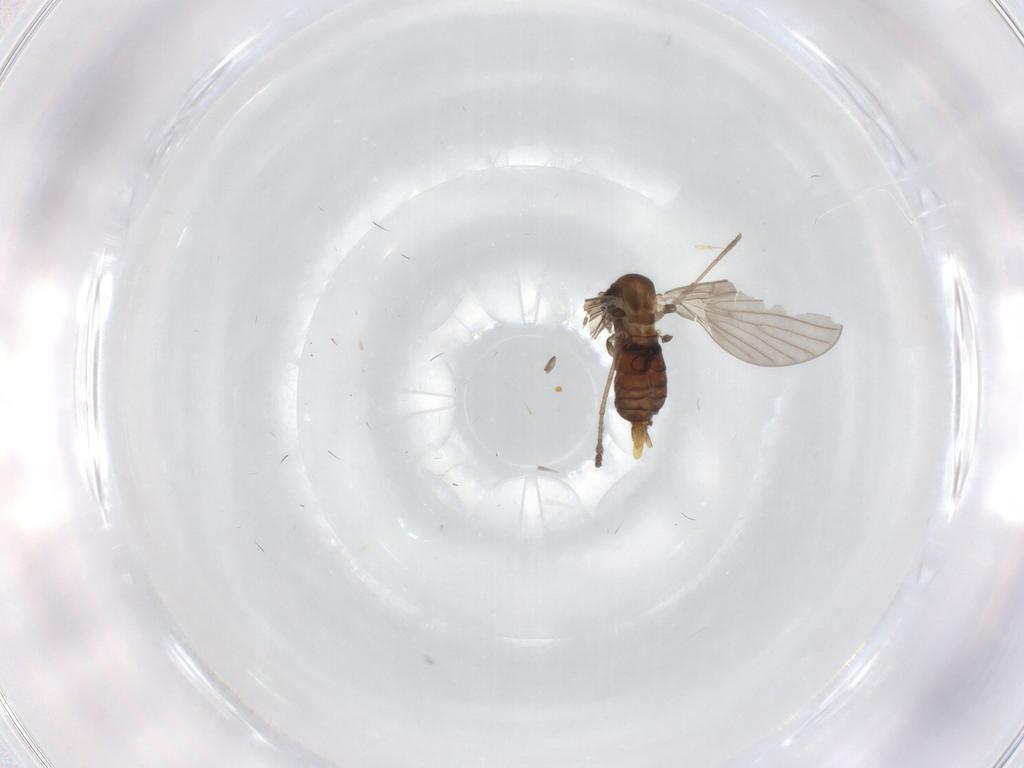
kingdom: Animalia
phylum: Arthropoda
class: Insecta
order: Diptera
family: Psychodidae
